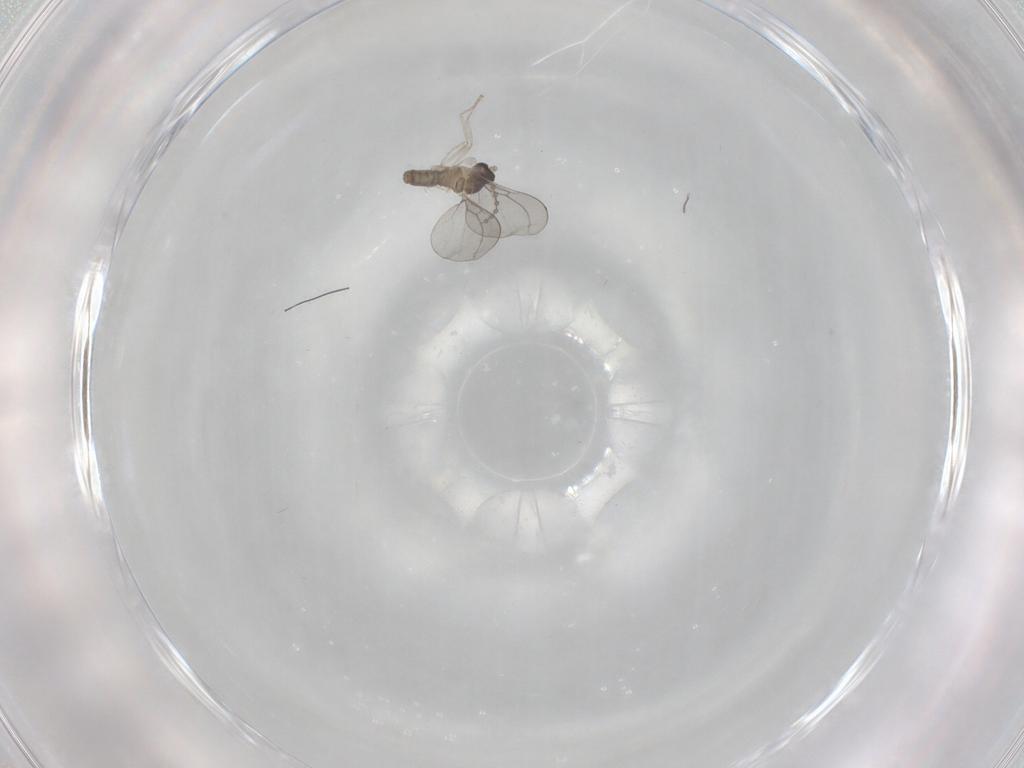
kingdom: Animalia
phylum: Arthropoda
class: Insecta
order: Diptera
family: Chironomidae
